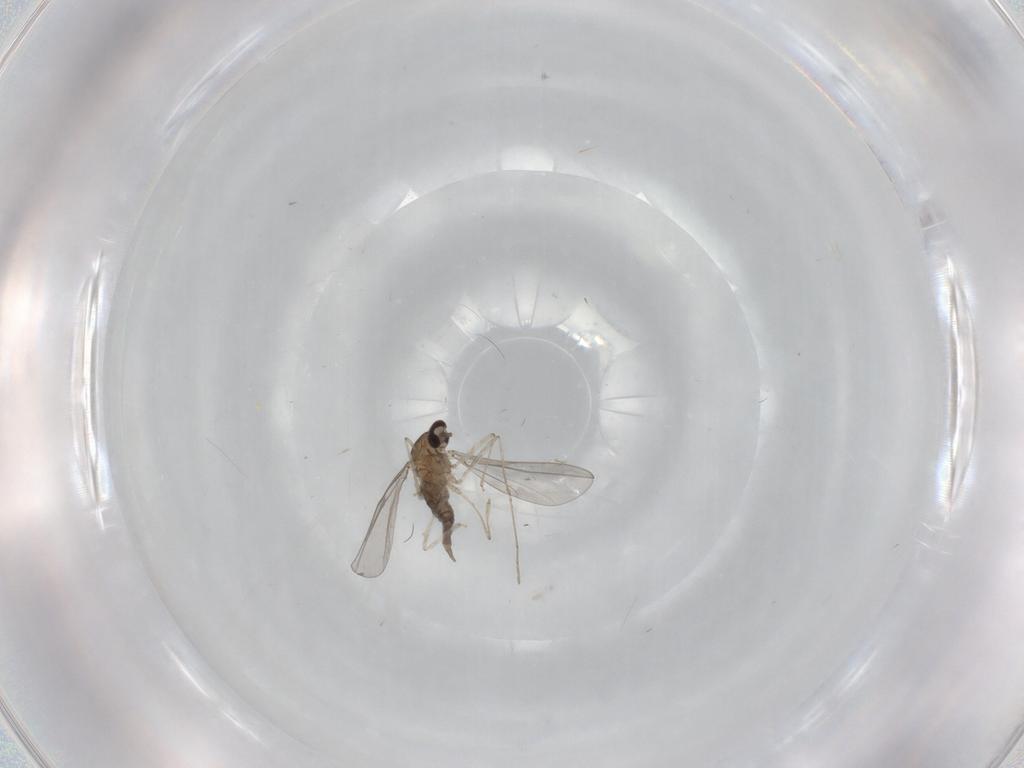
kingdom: Animalia
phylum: Arthropoda
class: Insecta
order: Diptera
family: Cecidomyiidae
